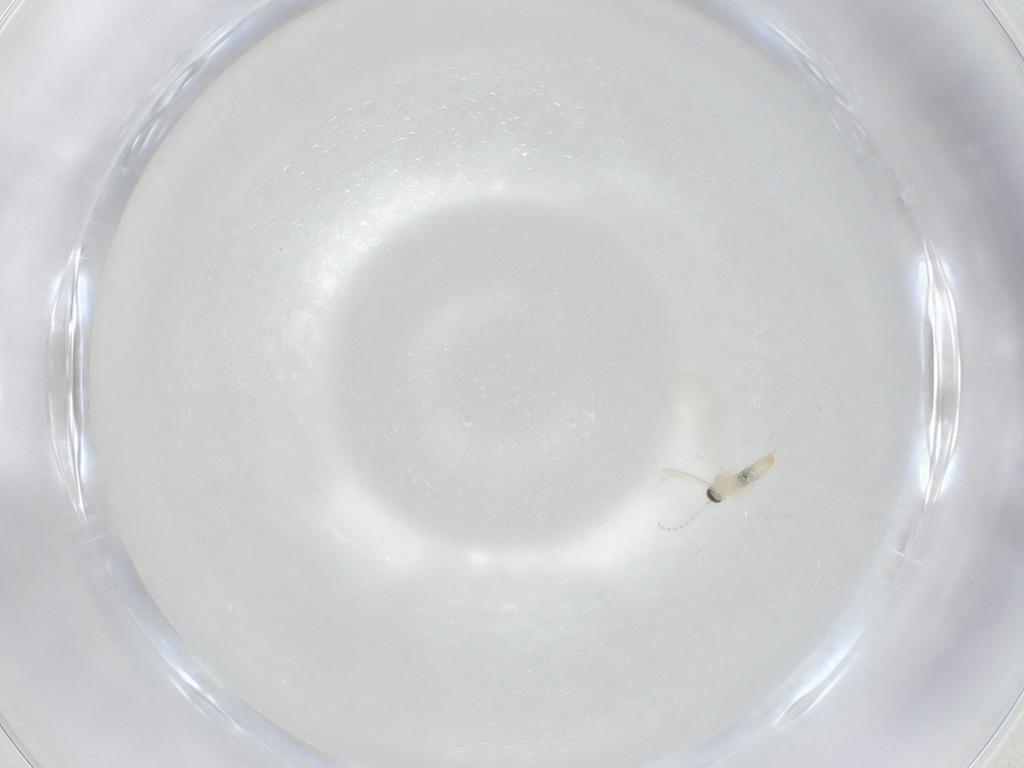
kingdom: Animalia
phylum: Arthropoda
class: Insecta
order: Diptera
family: Cecidomyiidae
